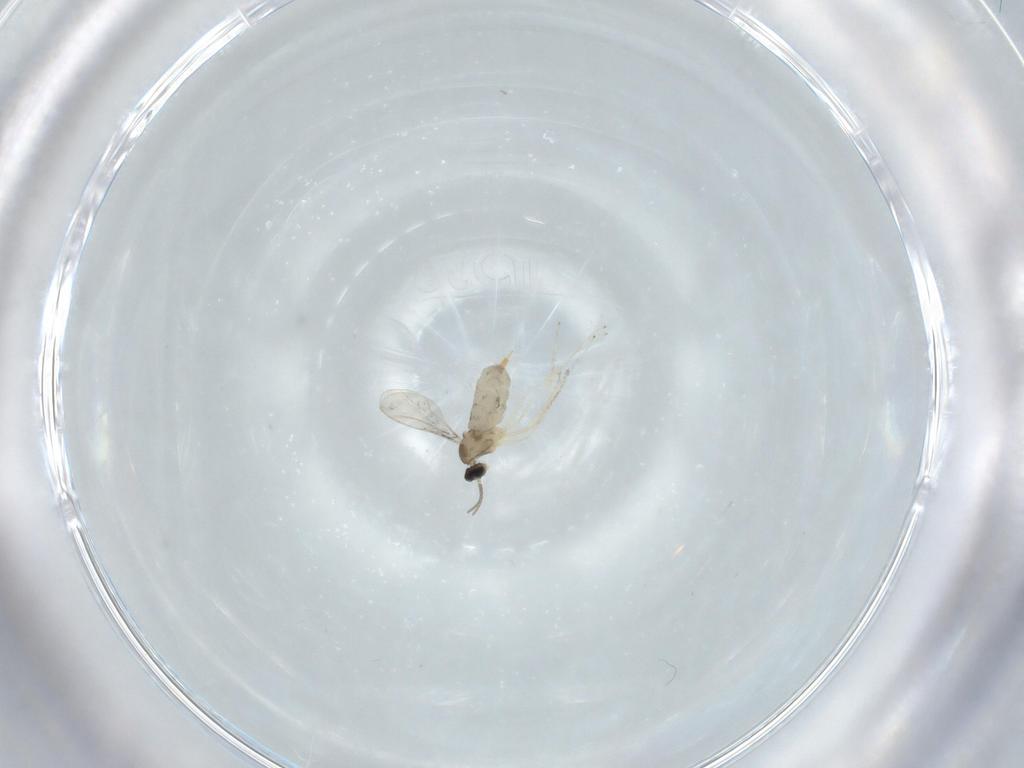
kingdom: Animalia
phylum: Arthropoda
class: Insecta
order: Diptera
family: Cecidomyiidae
